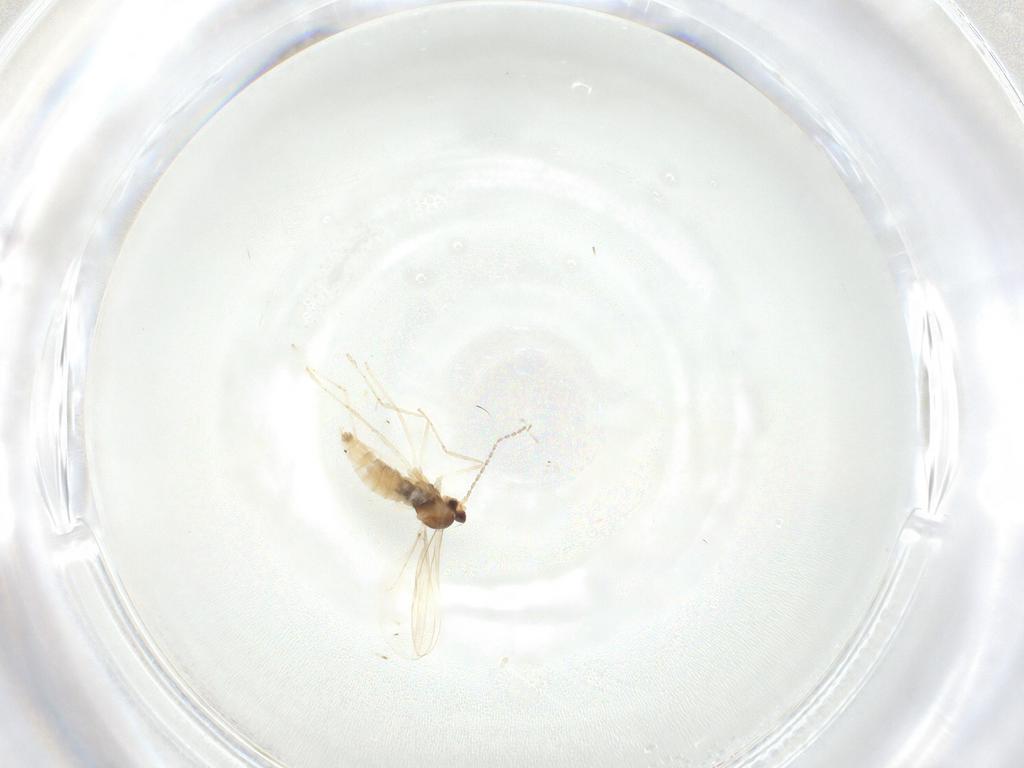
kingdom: Animalia
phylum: Arthropoda
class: Insecta
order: Diptera
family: Cecidomyiidae
